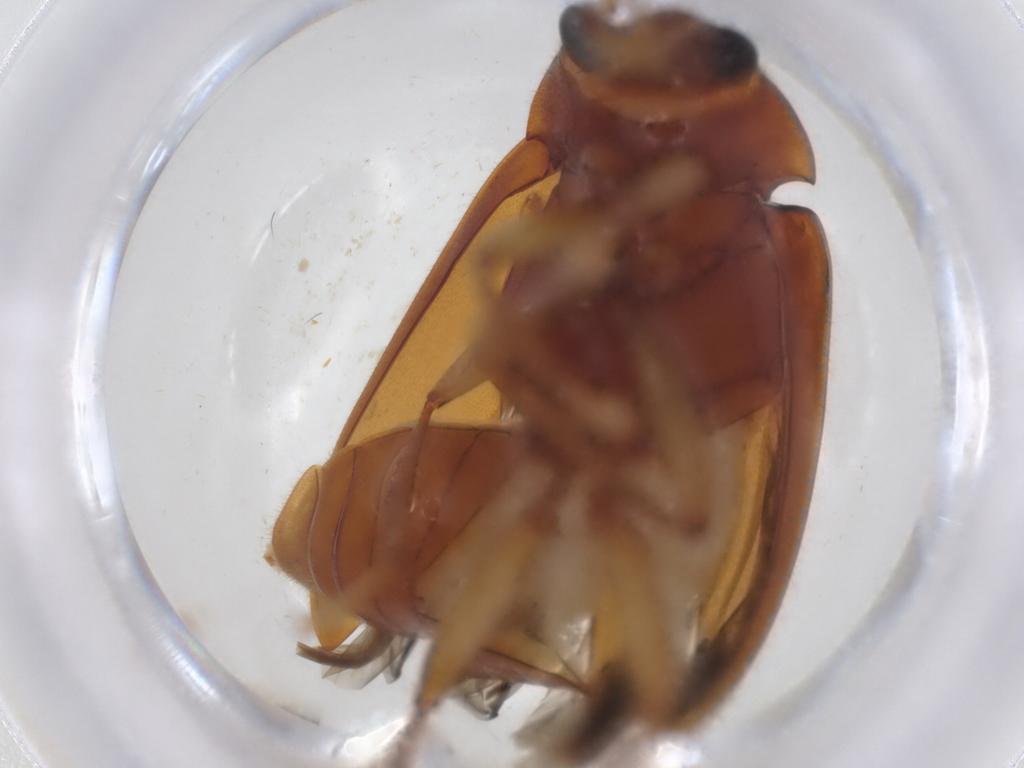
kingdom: Animalia
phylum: Arthropoda
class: Insecta
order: Coleoptera
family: Ptilodactylidae
